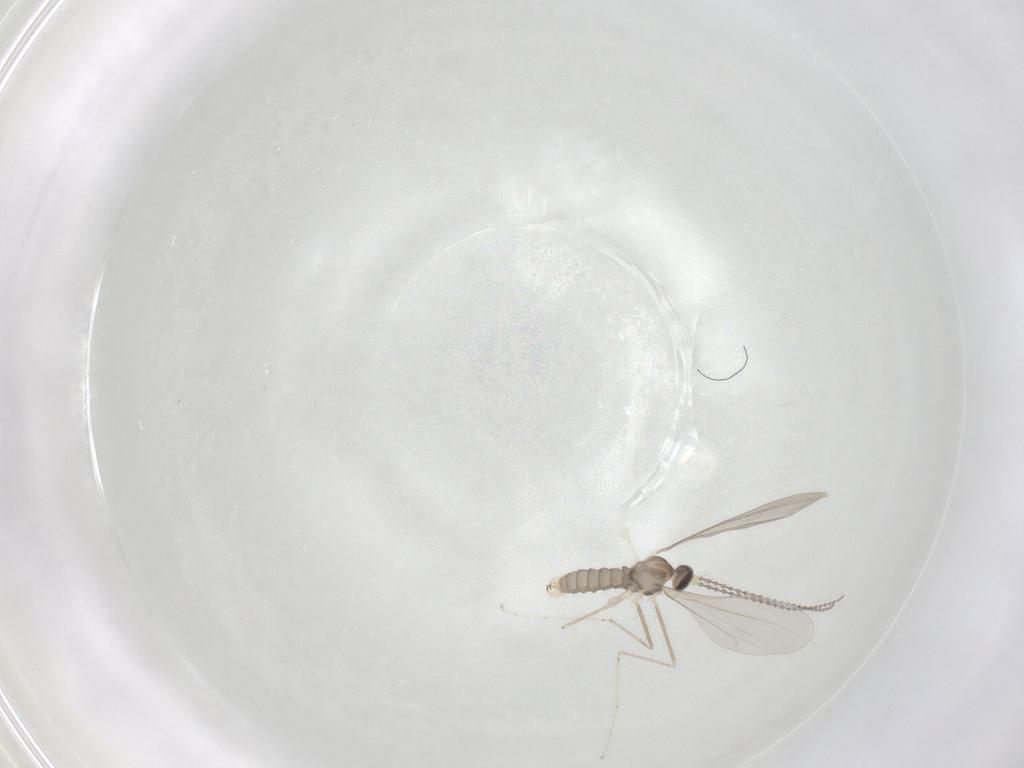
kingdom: Animalia
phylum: Arthropoda
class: Insecta
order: Diptera
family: Cecidomyiidae
